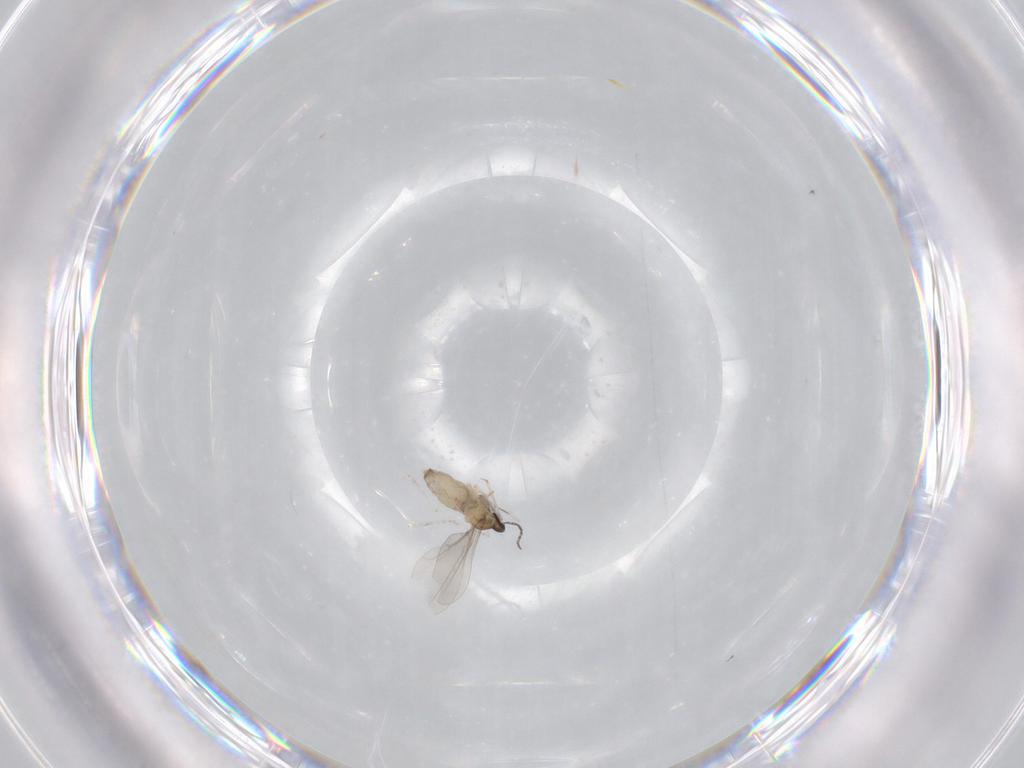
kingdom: Animalia
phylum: Arthropoda
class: Insecta
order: Diptera
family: Cecidomyiidae
